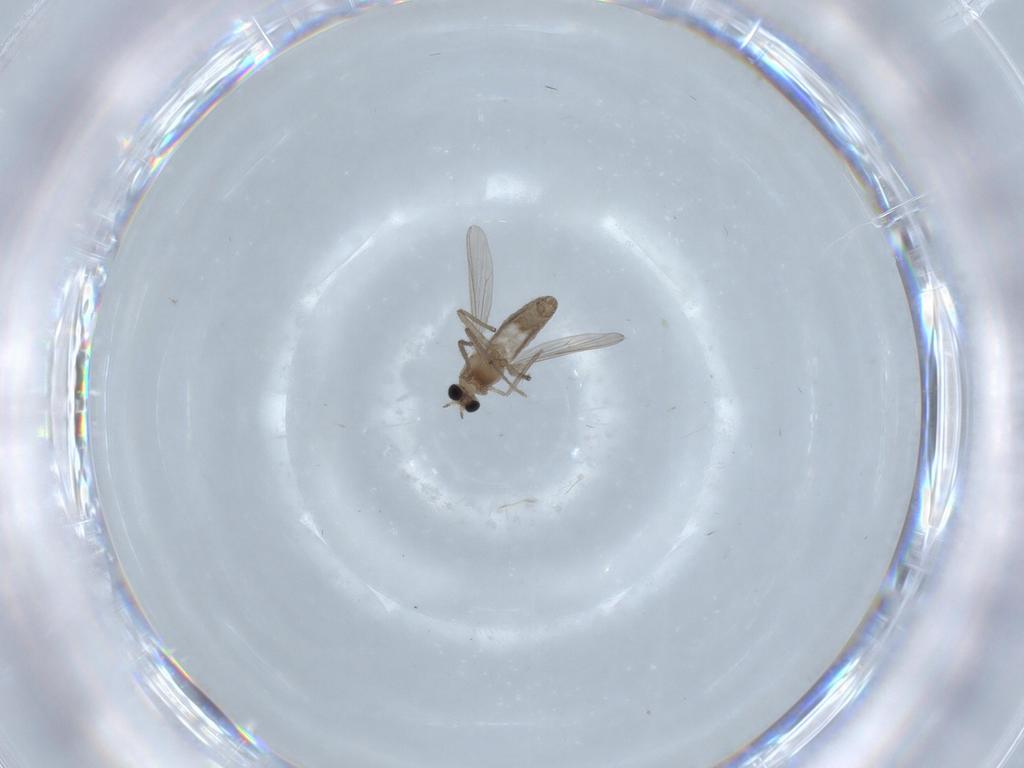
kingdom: Animalia
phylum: Arthropoda
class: Insecta
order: Diptera
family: Chironomidae
